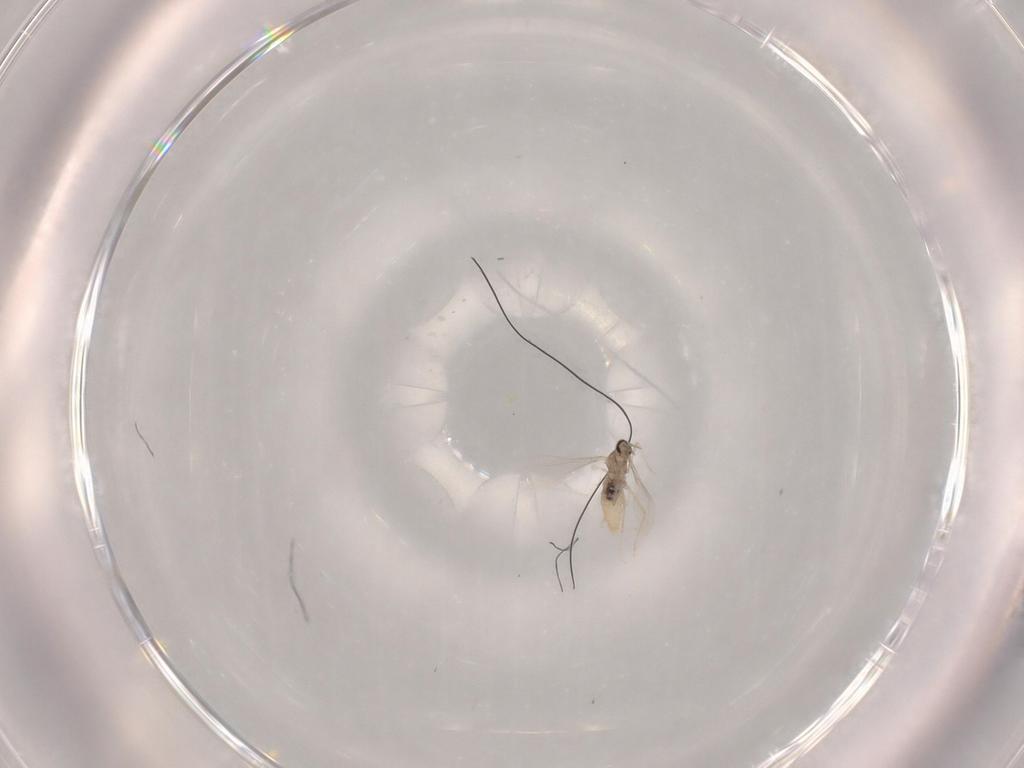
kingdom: Animalia
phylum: Arthropoda
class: Insecta
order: Diptera
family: Cecidomyiidae
